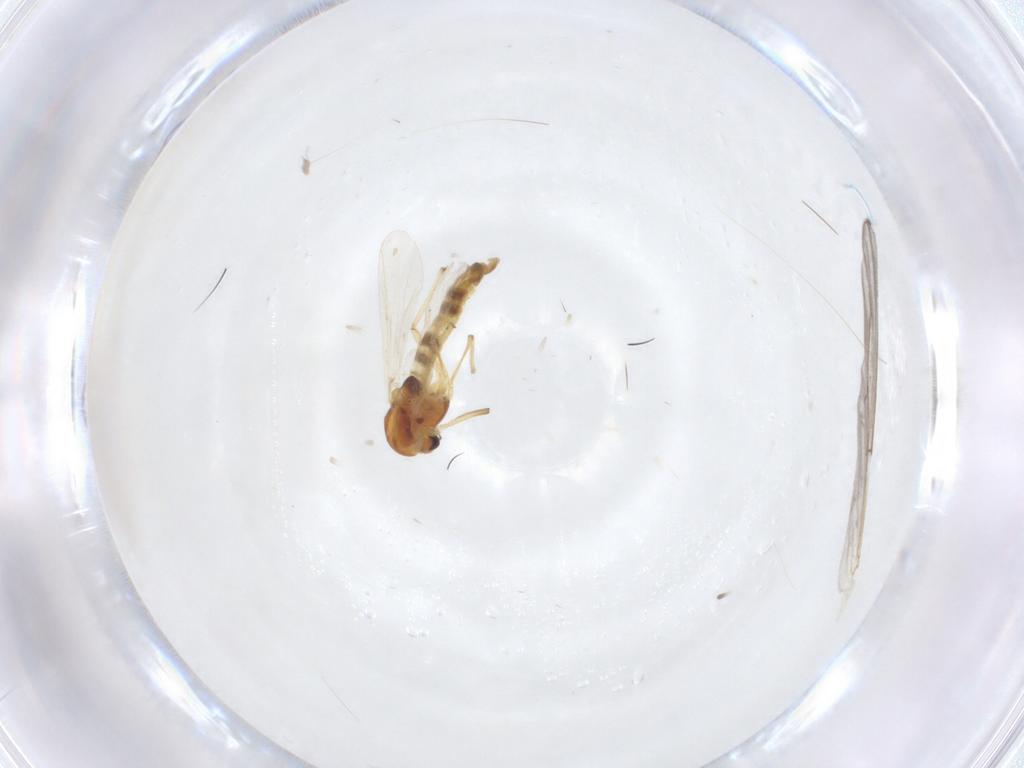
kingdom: Animalia
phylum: Arthropoda
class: Insecta
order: Diptera
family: Chironomidae
